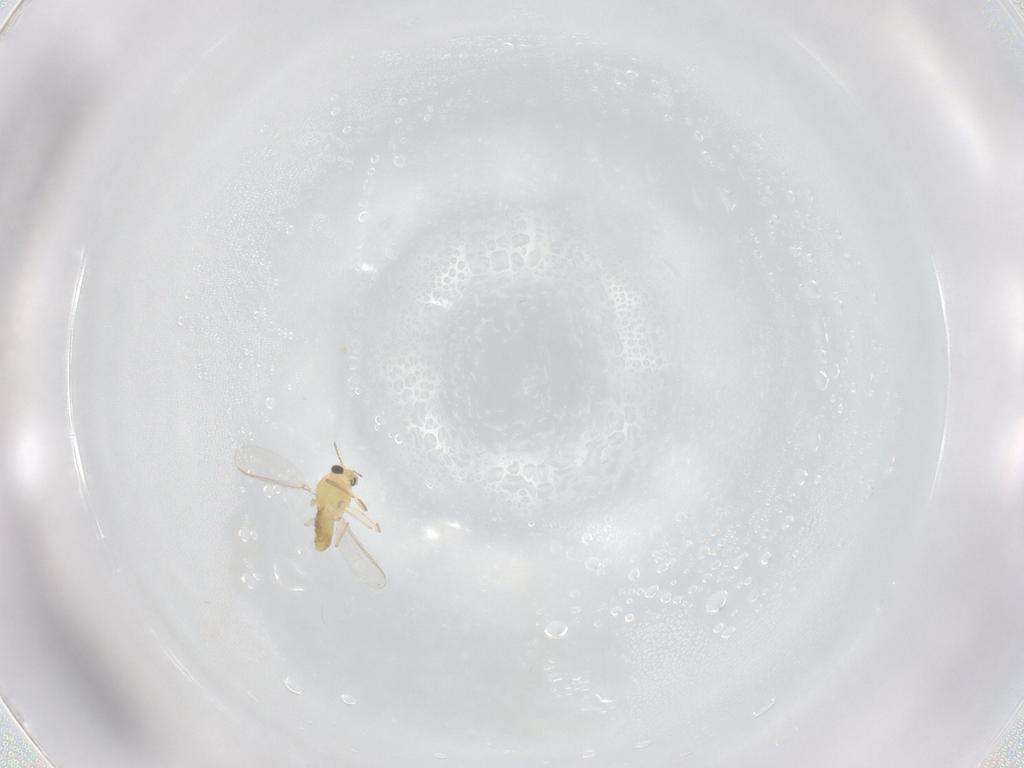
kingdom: Animalia
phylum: Arthropoda
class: Insecta
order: Diptera
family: Chironomidae
